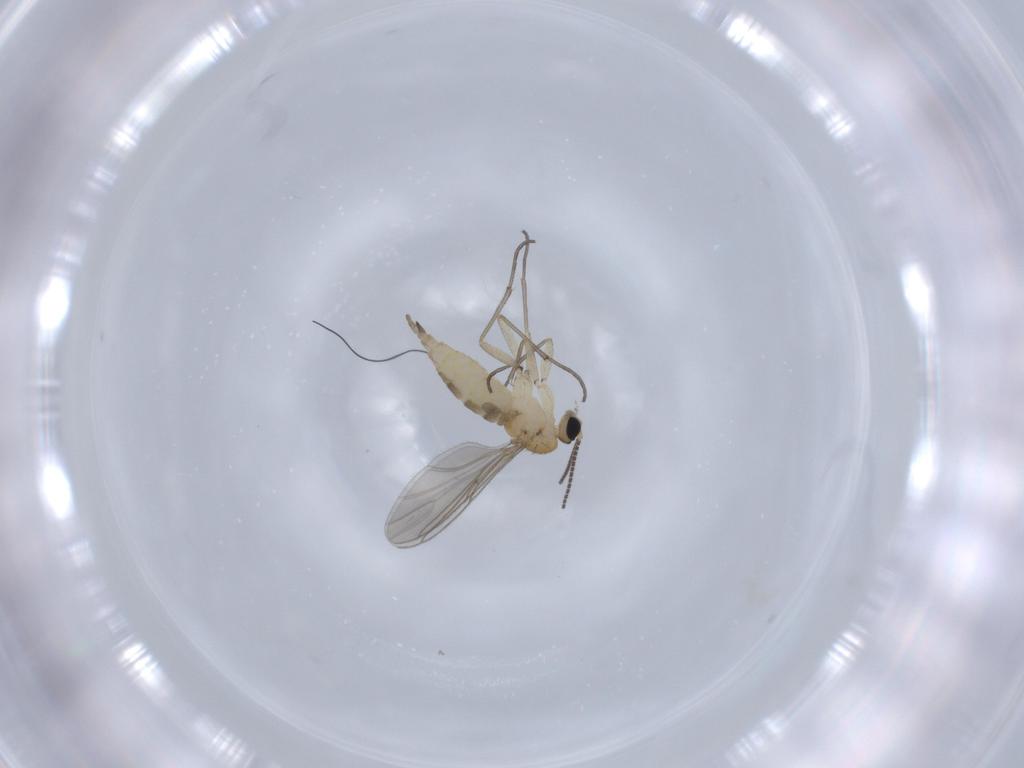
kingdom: Animalia
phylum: Arthropoda
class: Insecta
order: Diptera
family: Sciaridae
